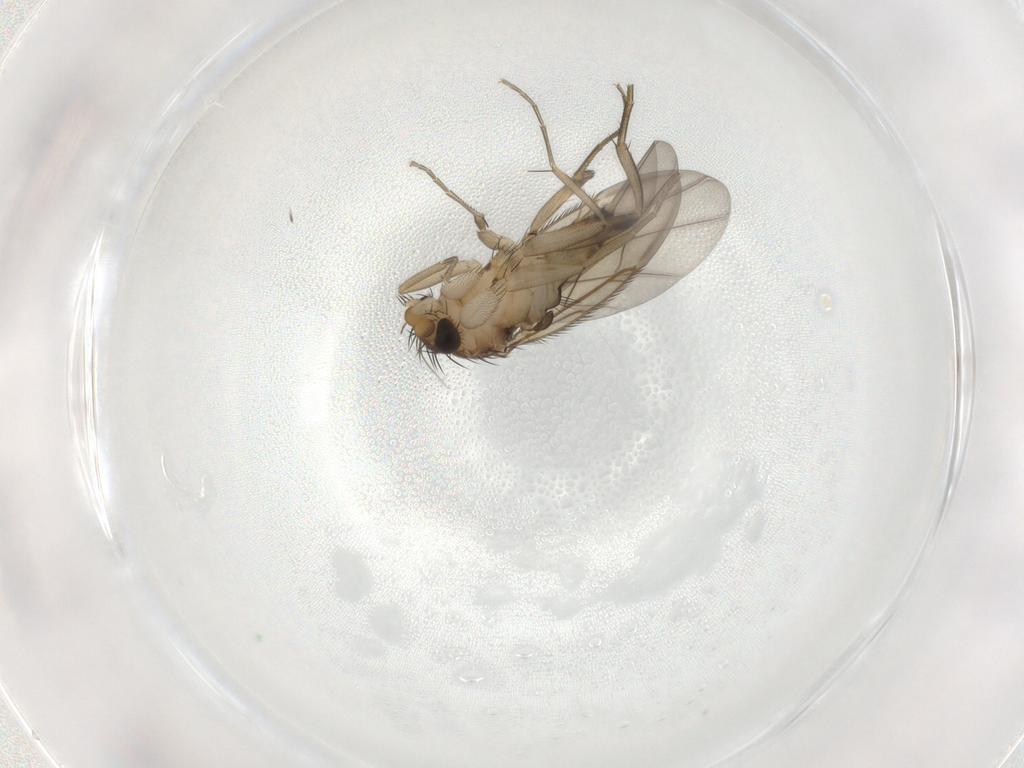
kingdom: Animalia
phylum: Arthropoda
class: Insecta
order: Diptera
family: Phoridae
